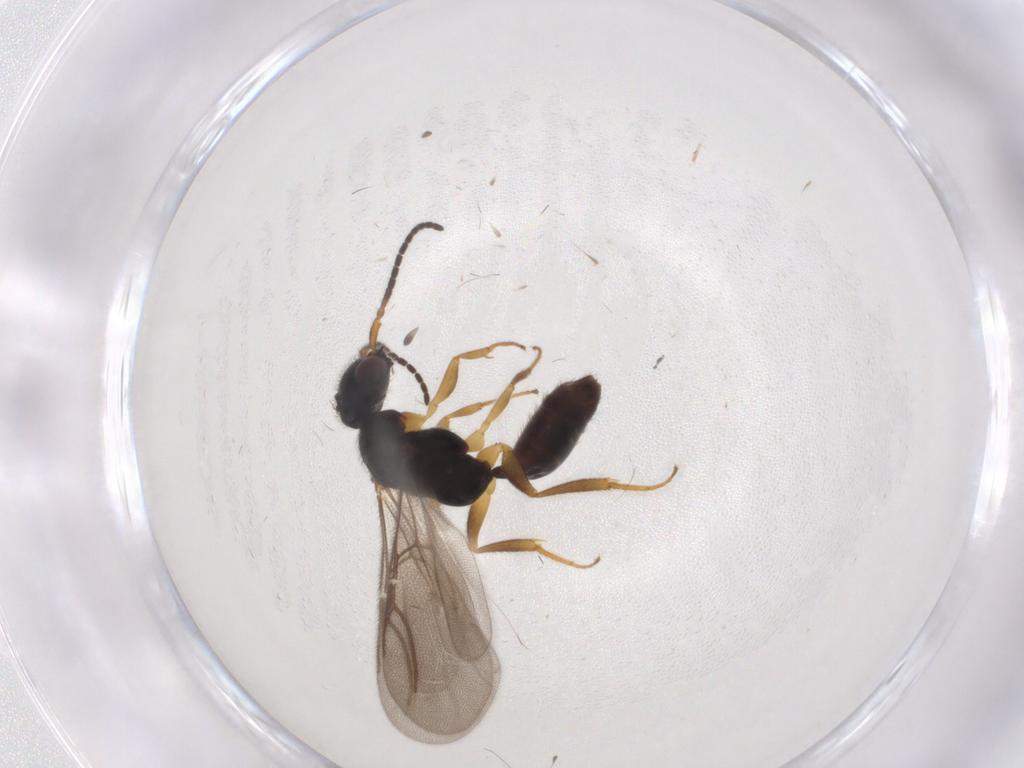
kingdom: Animalia
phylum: Arthropoda
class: Insecta
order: Hymenoptera
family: Bethylidae
